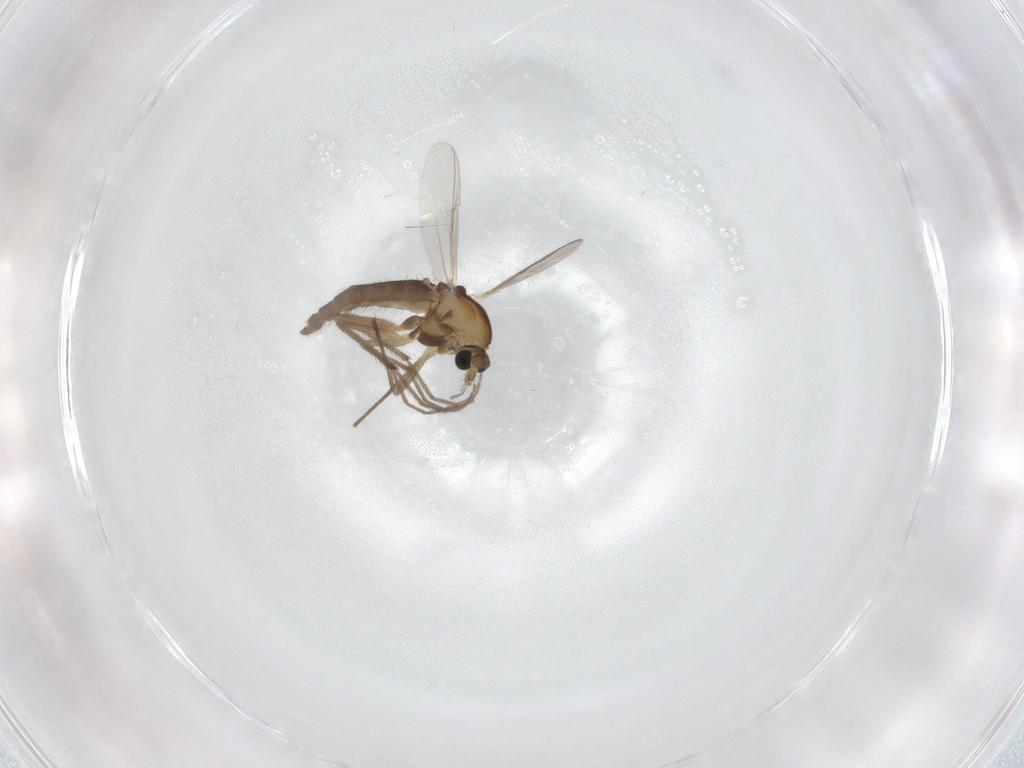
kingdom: Animalia
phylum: Arthropoda
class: Insecta
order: Diptera
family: Chironomidae
